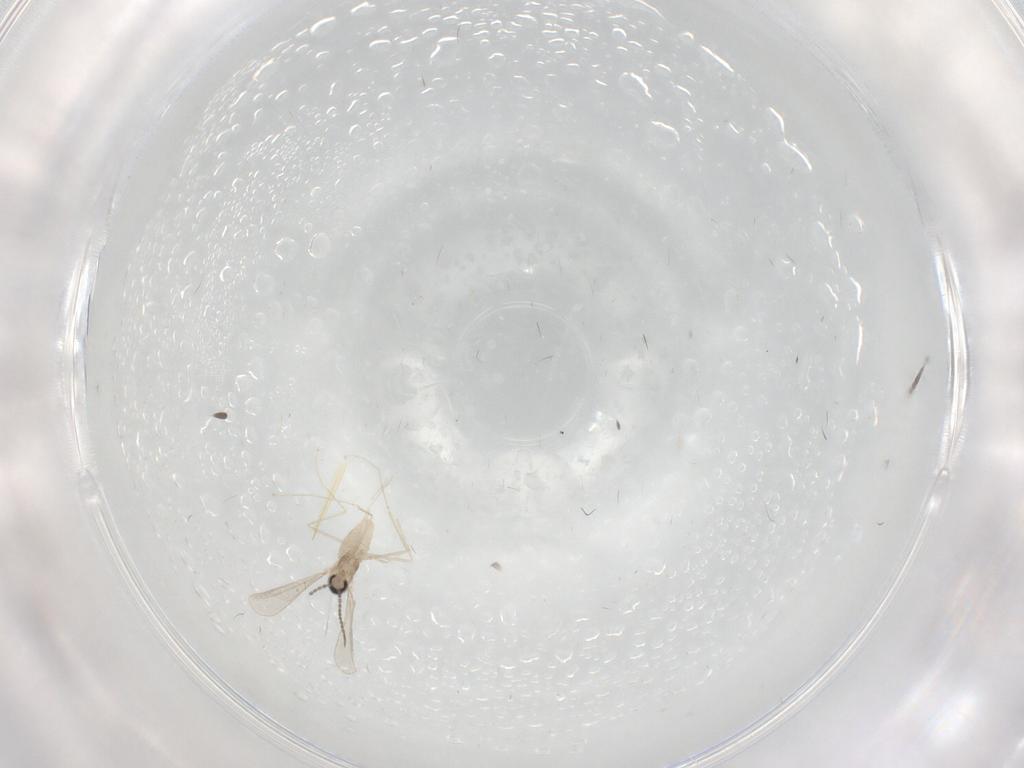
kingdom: Animalia
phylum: Arthropoda
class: Insecta
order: Diptera
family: Cecidomyiidae
